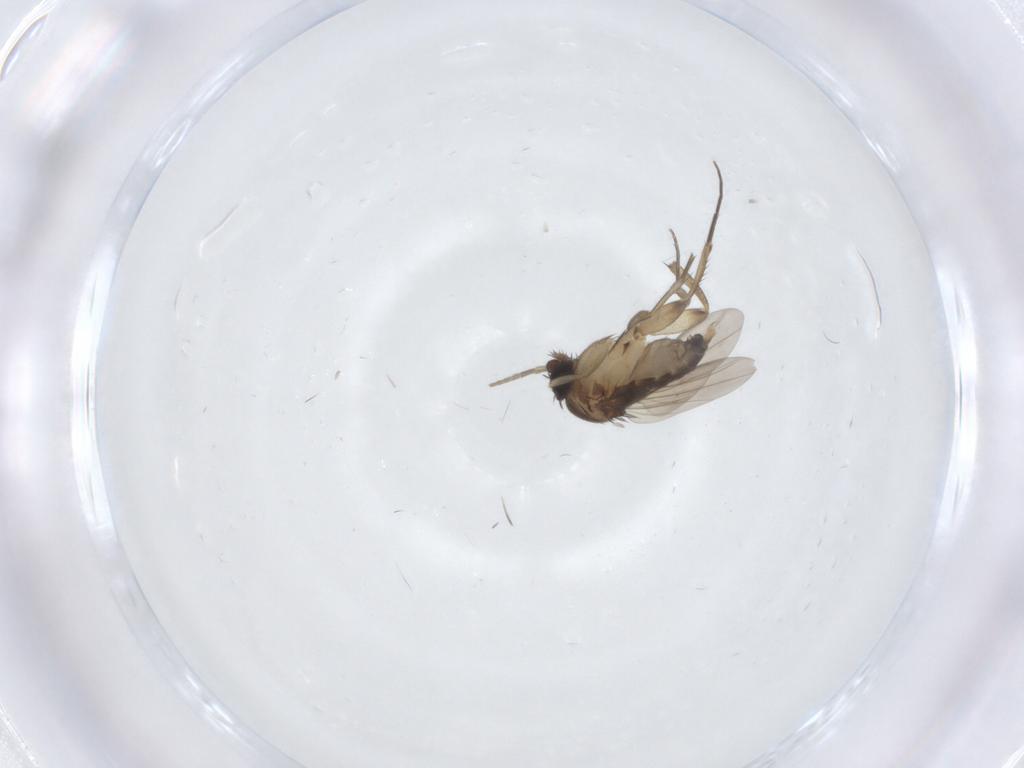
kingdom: Animalia
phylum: Arthropoda
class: Insecta
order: Diptera
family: Phoridae
